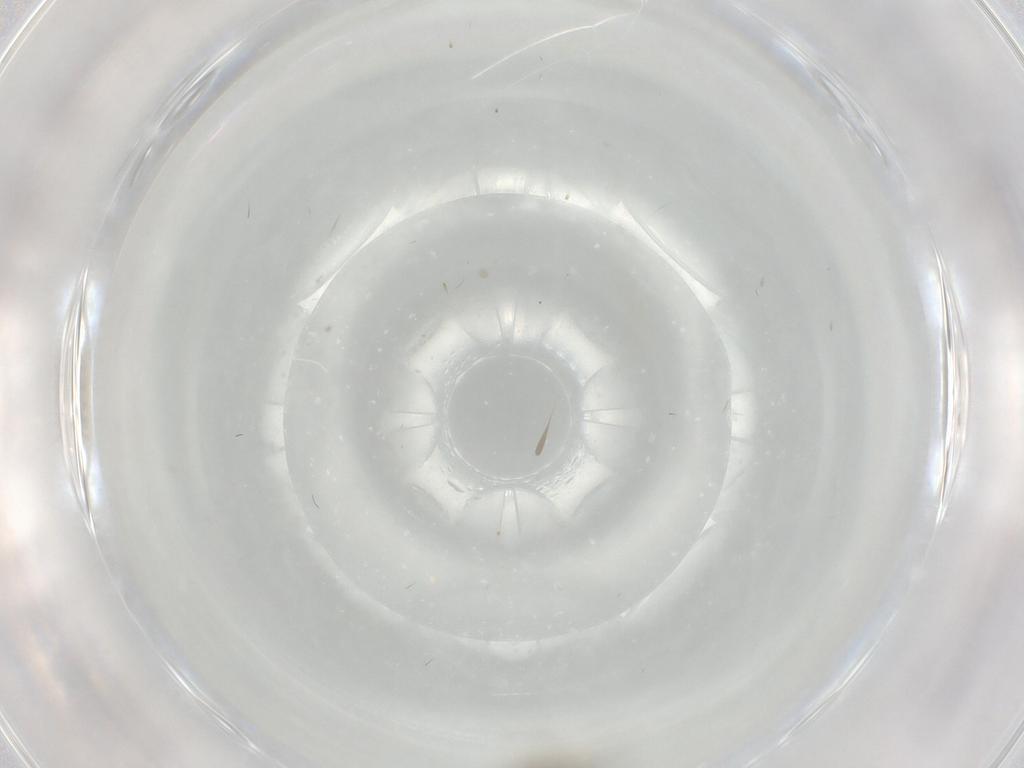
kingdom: Animalia
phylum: Arthropoda
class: Insecta
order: Diptera
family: Ceratopogonidae
